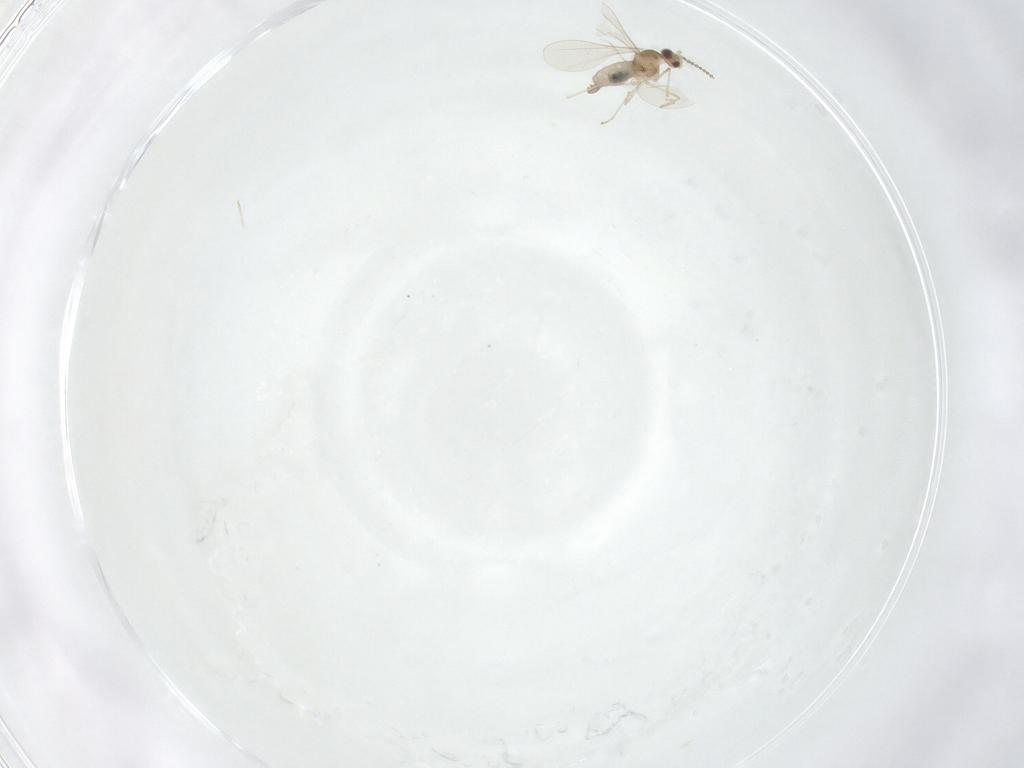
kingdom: Animalia
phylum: Arthropoda
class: Insecta
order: Diptera
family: Cecidomyiidae
